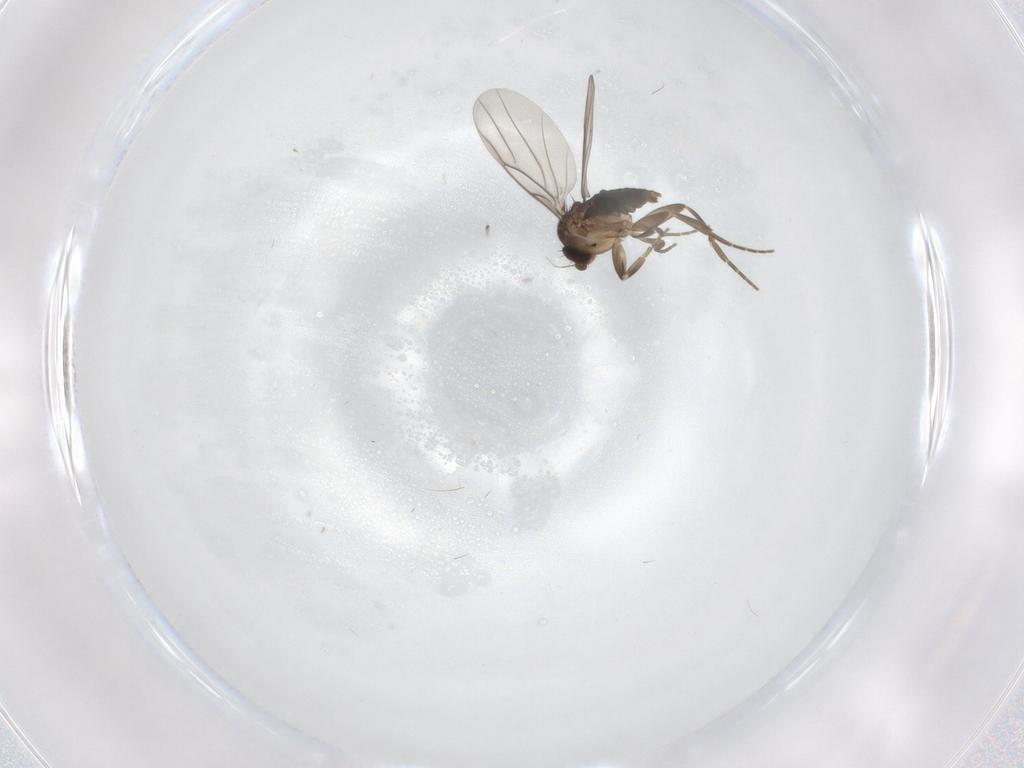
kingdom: Animalia
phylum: Arthropoda
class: Insecta
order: Diptera
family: Phoridae
